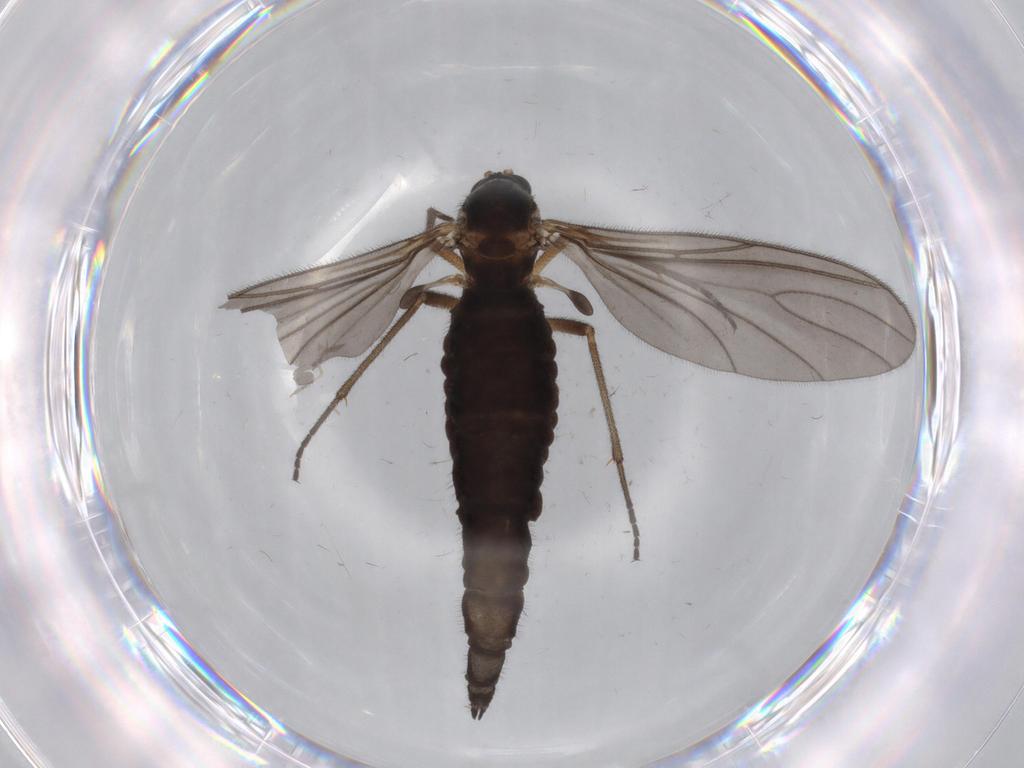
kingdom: Animalia
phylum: Arthropoda
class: Insecta
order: Diptera
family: Sciaridae
